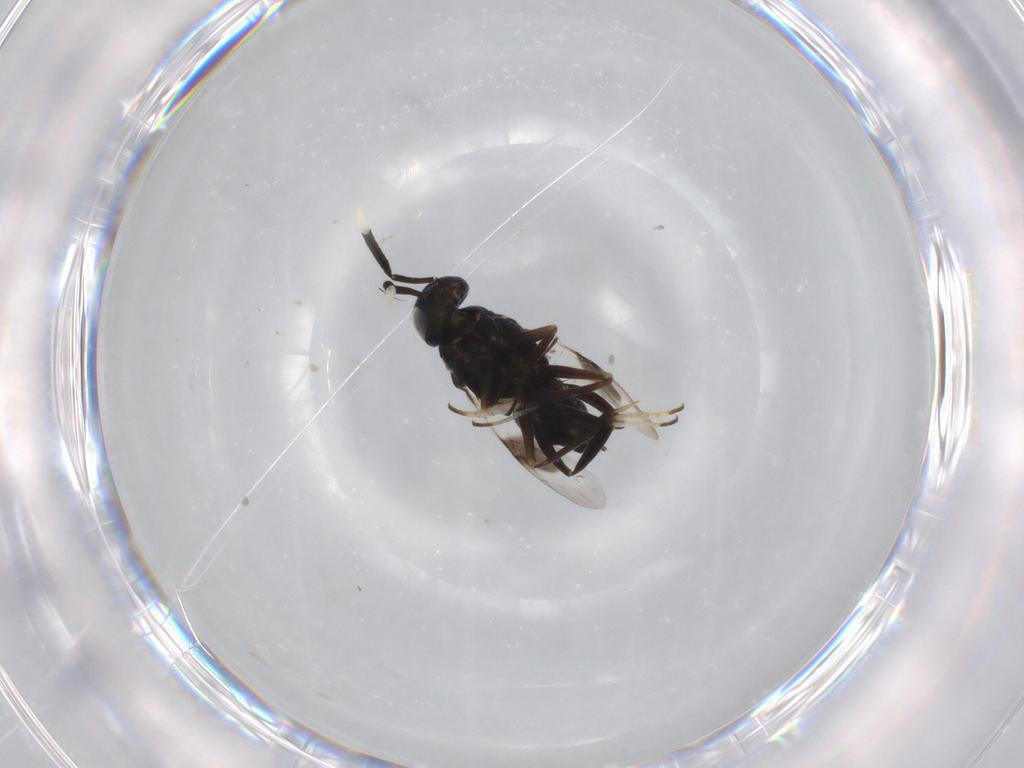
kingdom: Animalia
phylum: Arthropoda
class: Insecta
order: Hymenoptera
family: Encyrtidae
